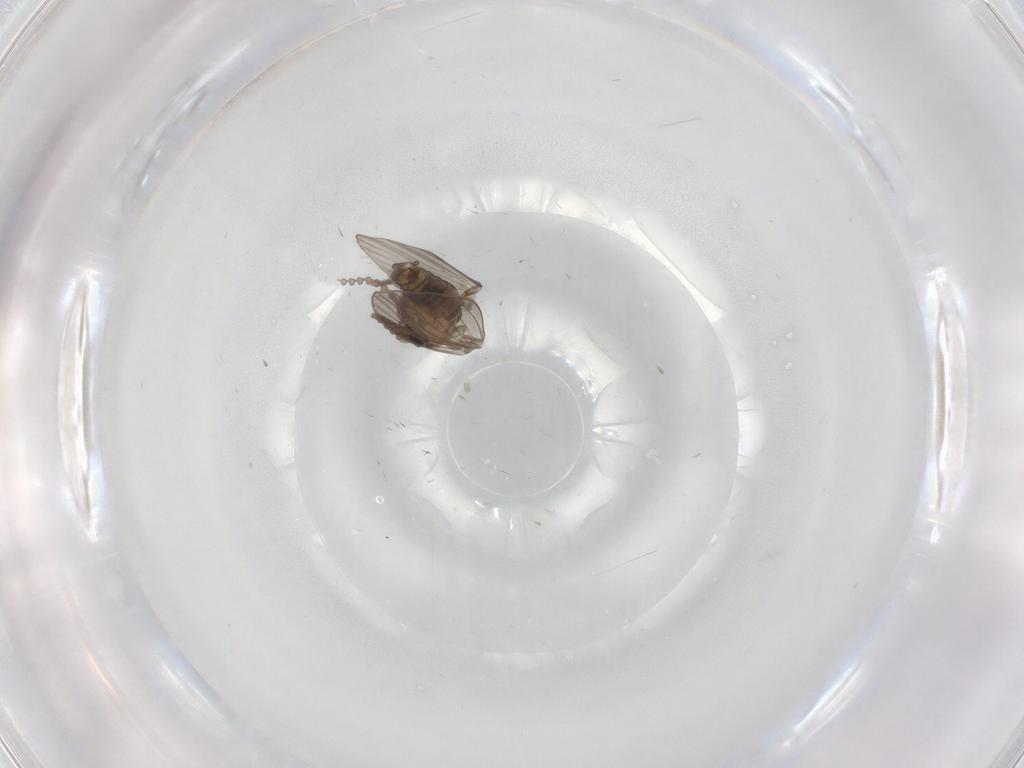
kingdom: Animalia
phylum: Arthropoda
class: Insecta
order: Diptera
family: Psychodidae
